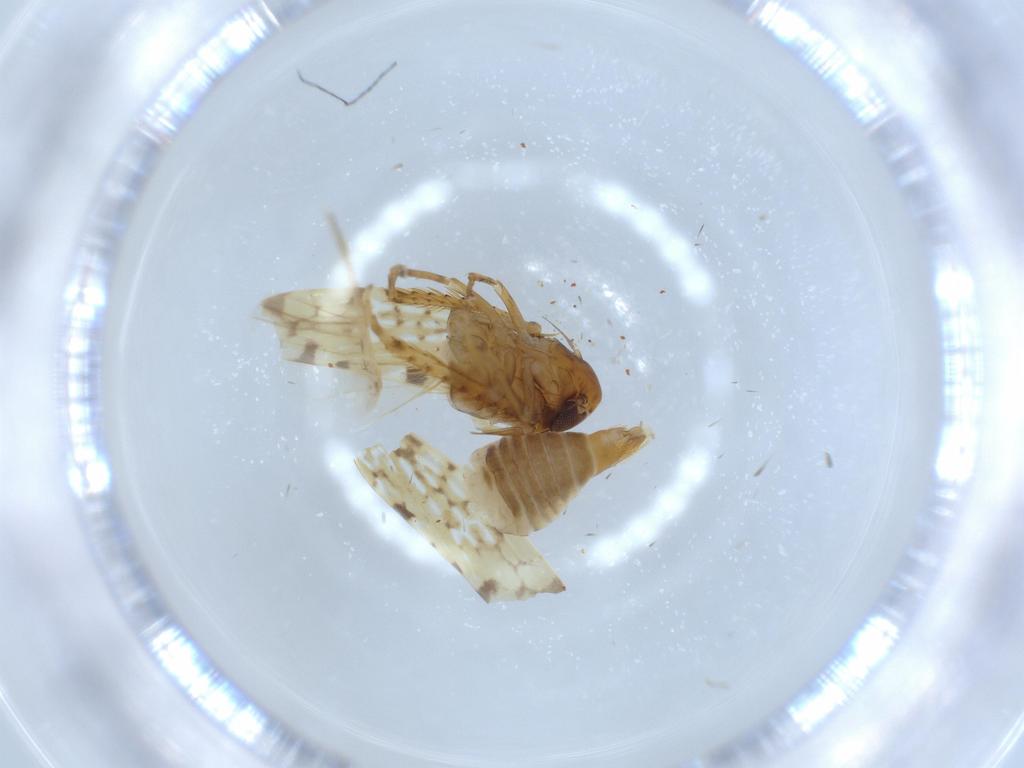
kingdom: Animalia
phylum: Arthropoda
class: Insecta
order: Hemiptera
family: Cicadellidae
